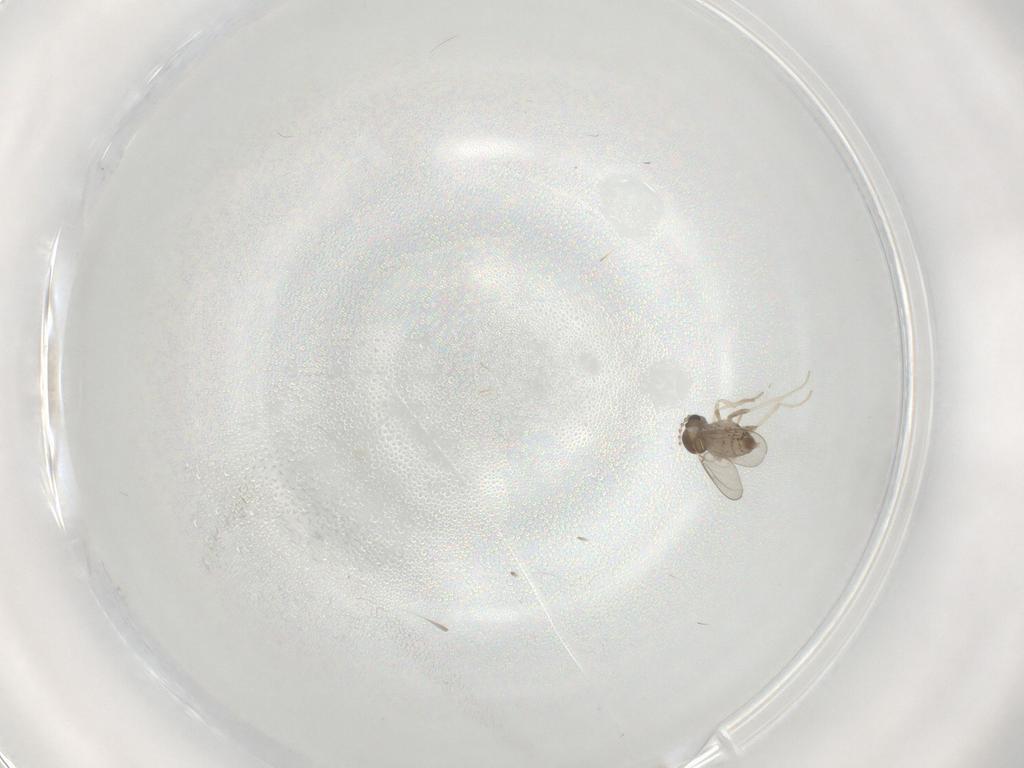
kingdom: Animalia
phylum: Arthropoda
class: Insecta
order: Diptera
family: Cecidomyiidae
